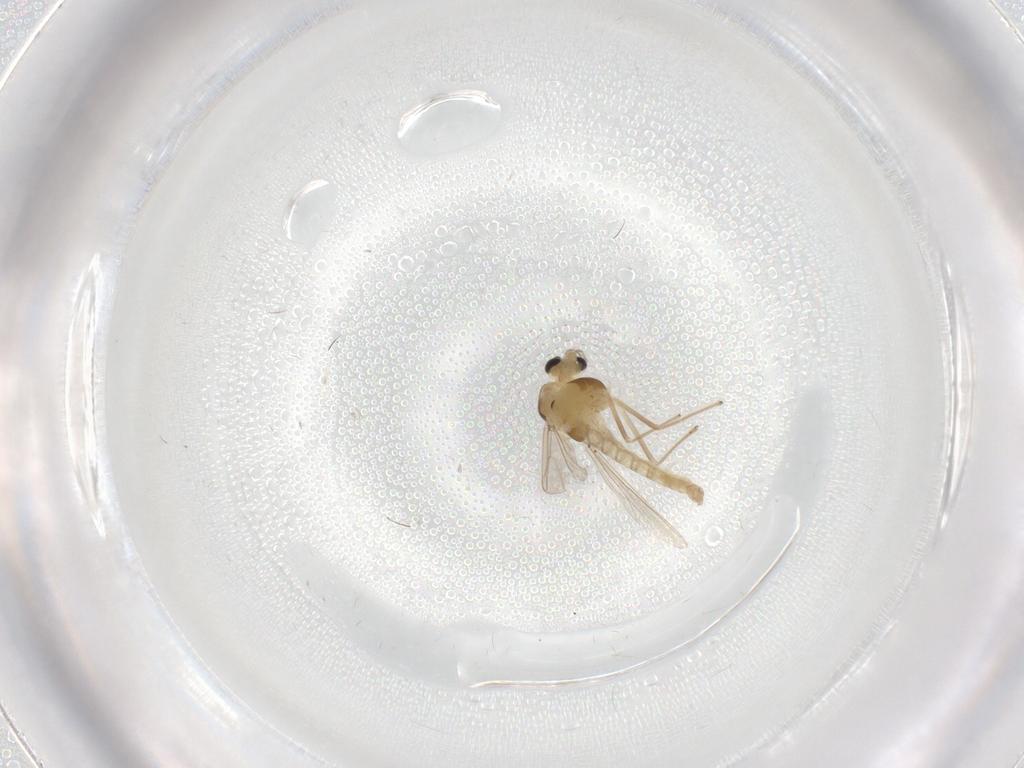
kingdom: Animalia
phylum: Arthropoda
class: Insecta
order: Diptera
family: Chironomidae
